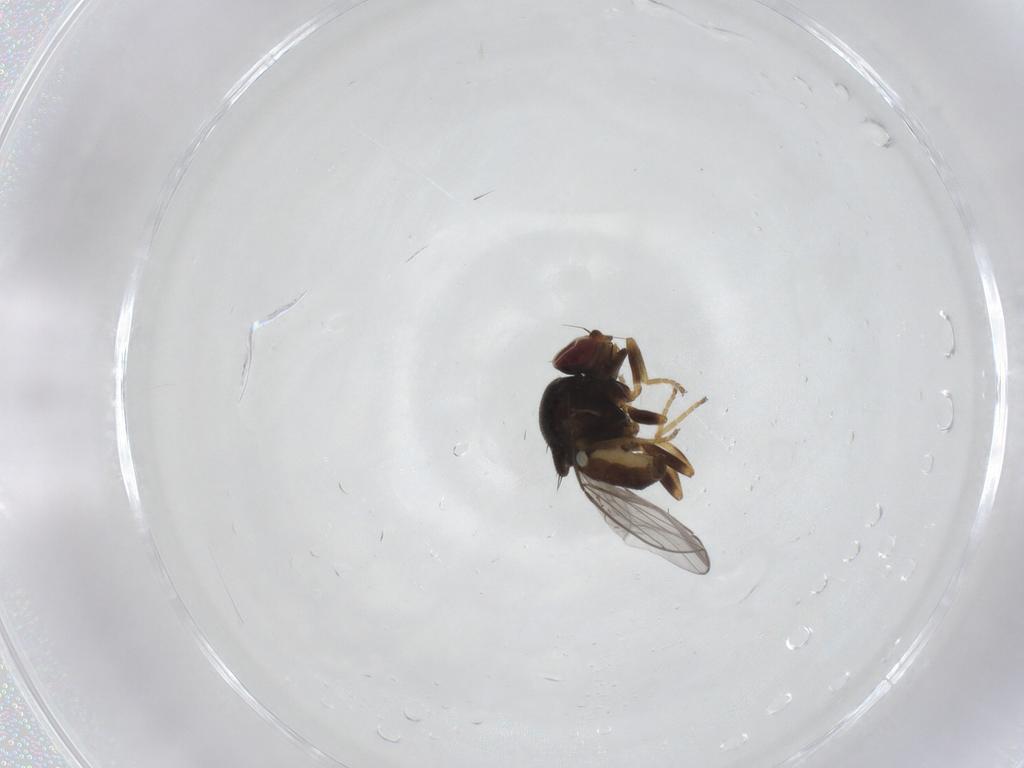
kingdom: Animalia
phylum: Arthropoda
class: Insecta
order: Diptera
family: Chloropidae
